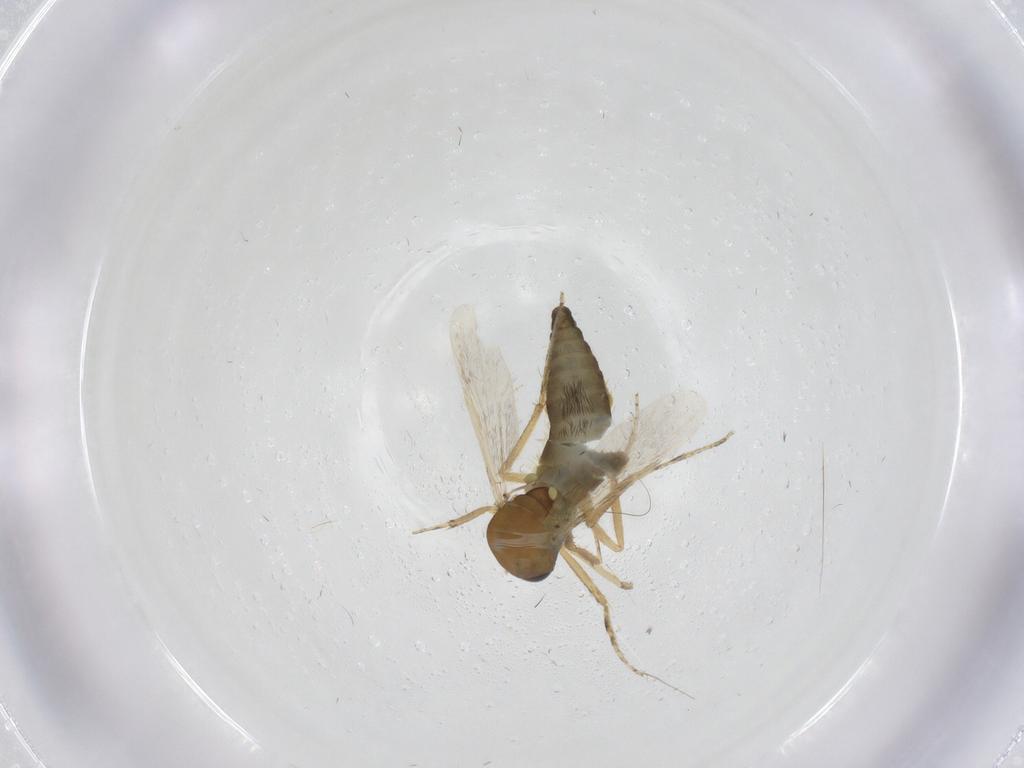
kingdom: Animalia
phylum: Arthropoda
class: Insecta
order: Diptera
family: Ceratopogonidae
